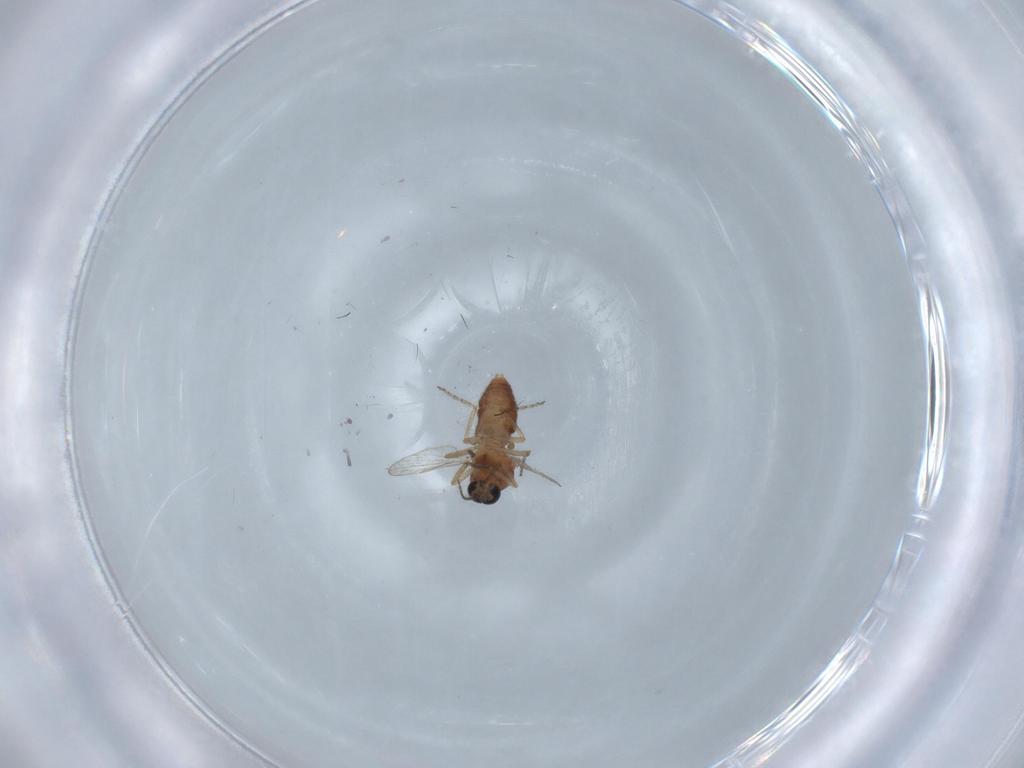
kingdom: Animalia
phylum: Arthropoda
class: Insecta
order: Diptera
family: Ceratopogonidae
